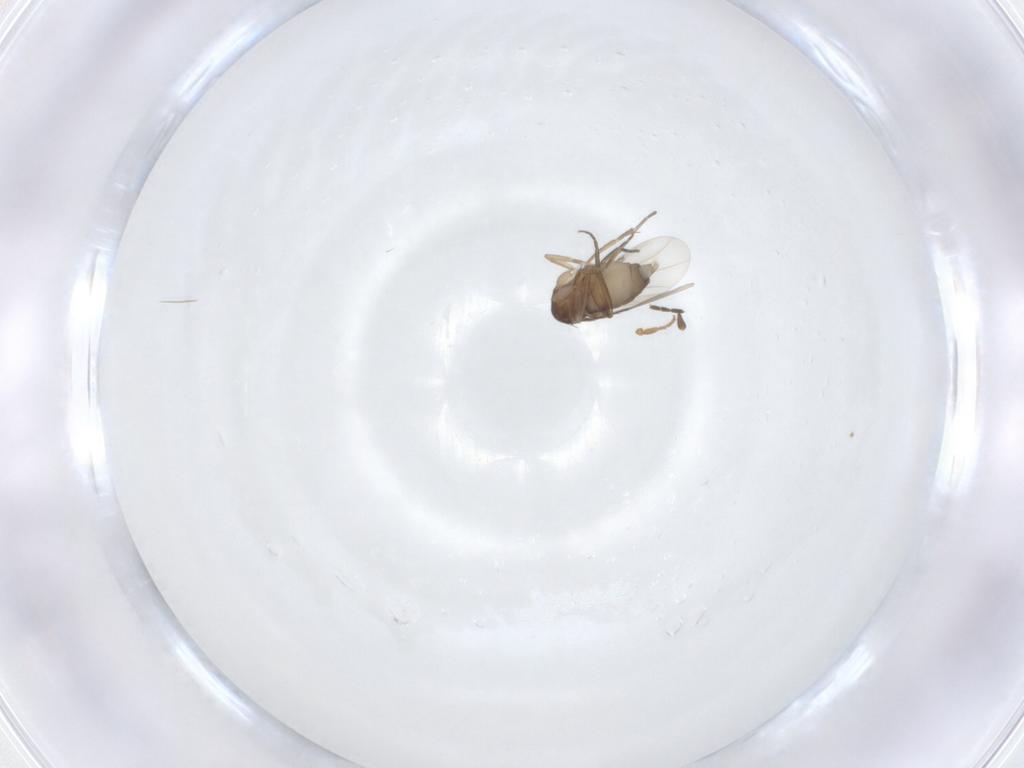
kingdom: Animalia
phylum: Arthropoda
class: Insecta
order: Diptera
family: Phoridae
